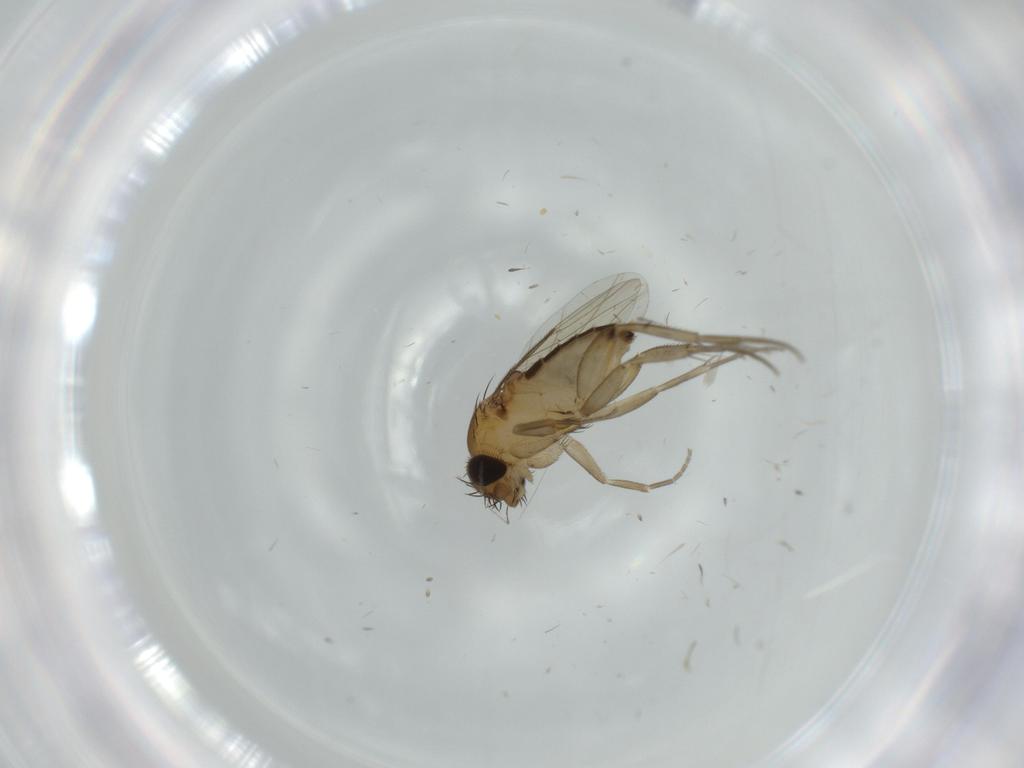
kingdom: Animalia
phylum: Arthropoda
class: Insecta
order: Diptera
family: Phoridae
